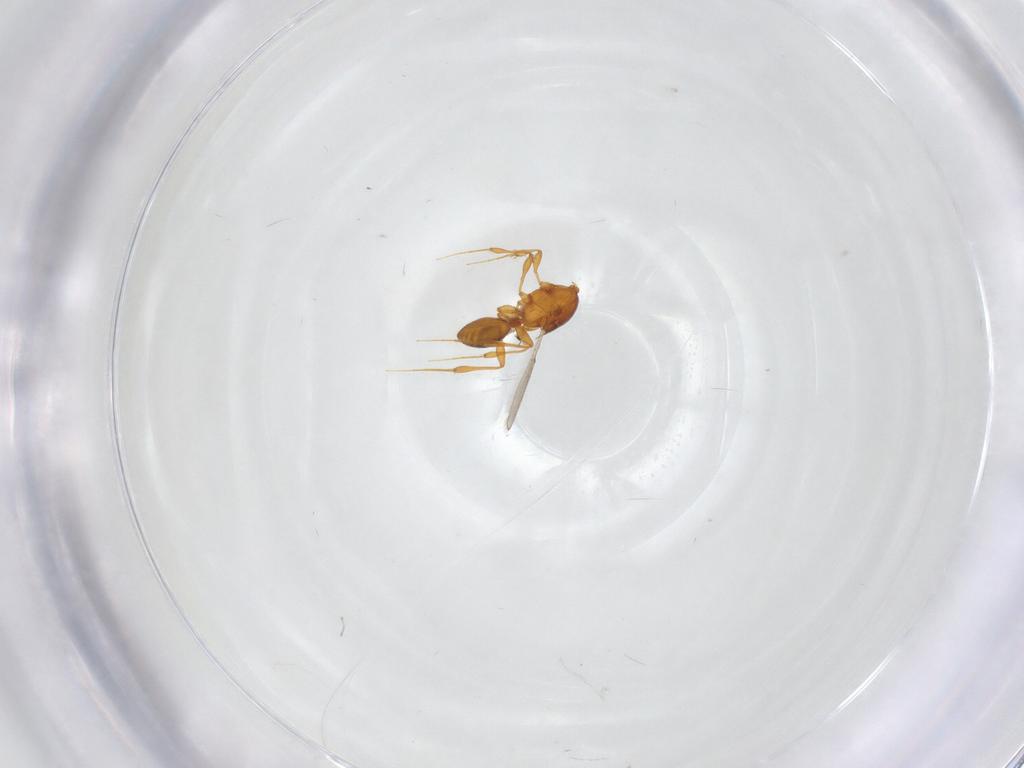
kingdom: Animalia
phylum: Arthropoda
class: Insecta
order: Hymenoptera
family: Platygastridae
